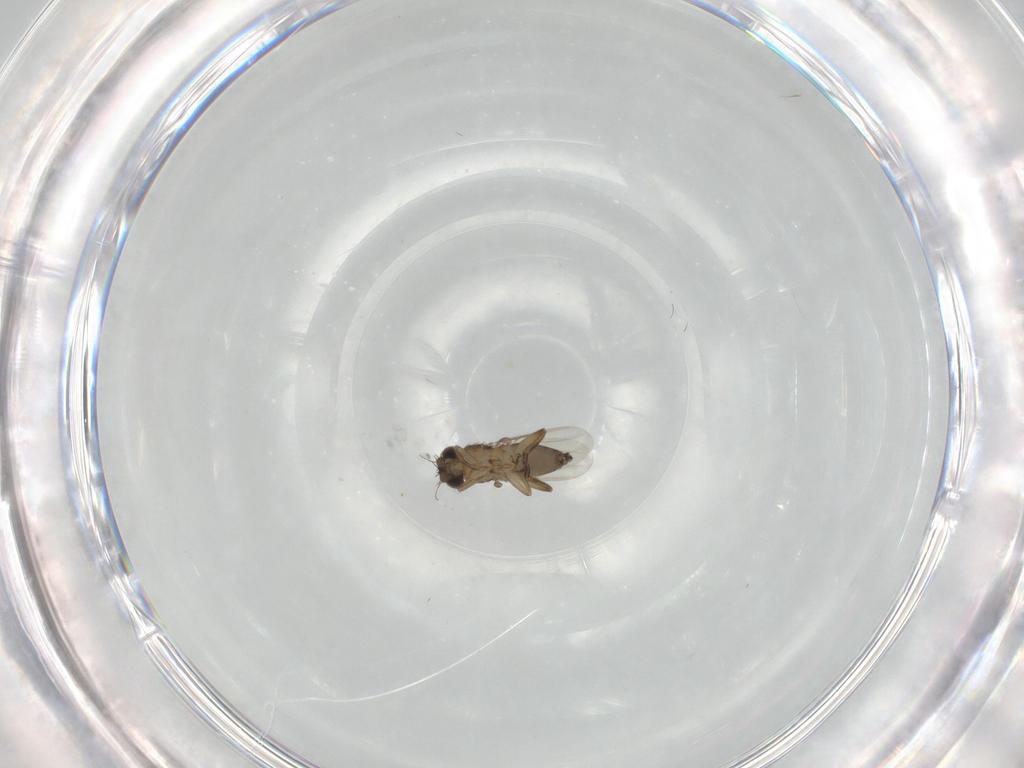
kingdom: Animalia
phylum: Arthropoda
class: Insecta
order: Diptera
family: Phoridae
